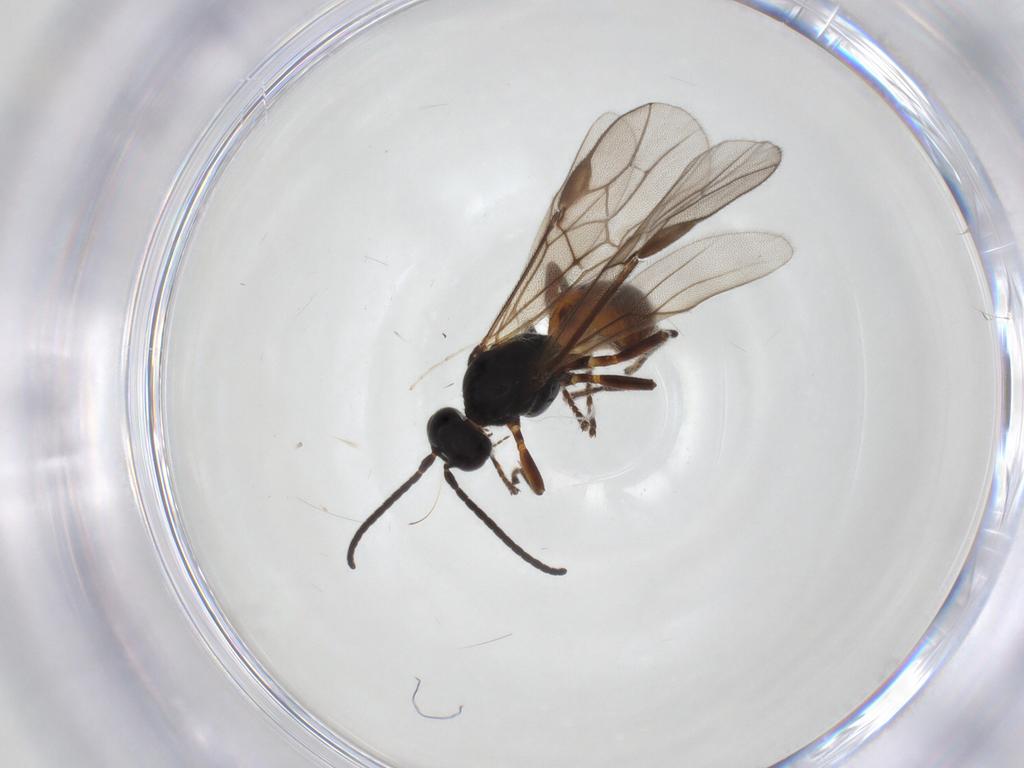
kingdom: Animalia
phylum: Arthropoda
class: Insecta
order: Hymenoptera
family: Braconidae
